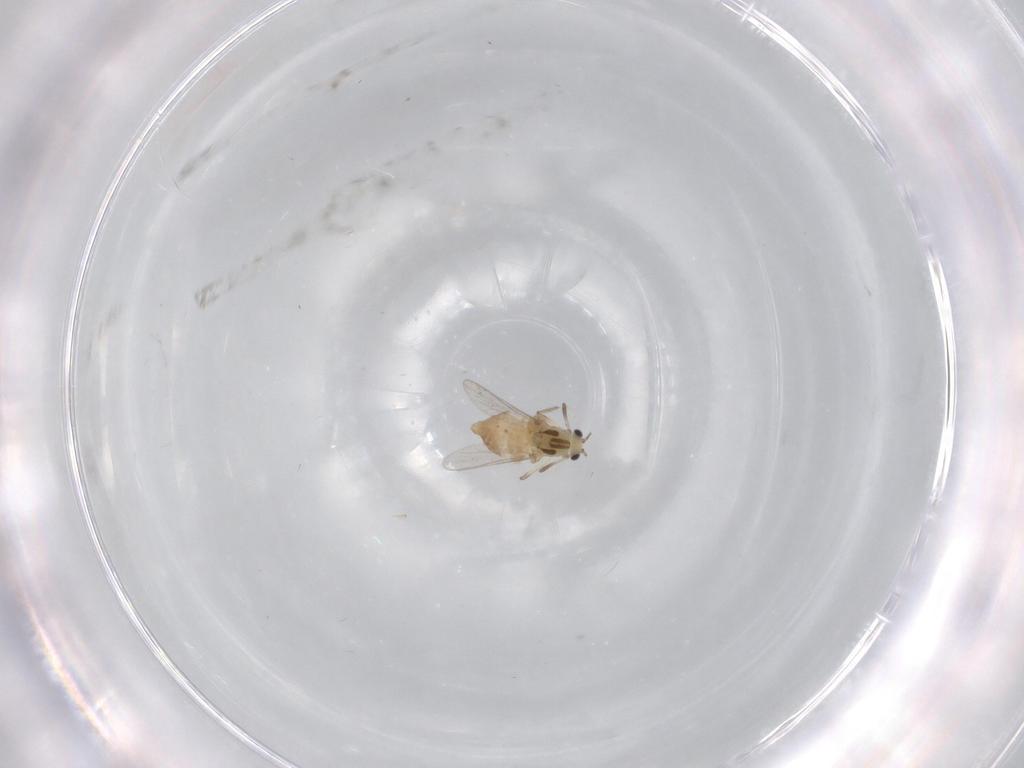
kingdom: Animalia
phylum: Arthropoda
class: Insecta
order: Diptera
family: Chironomidae
